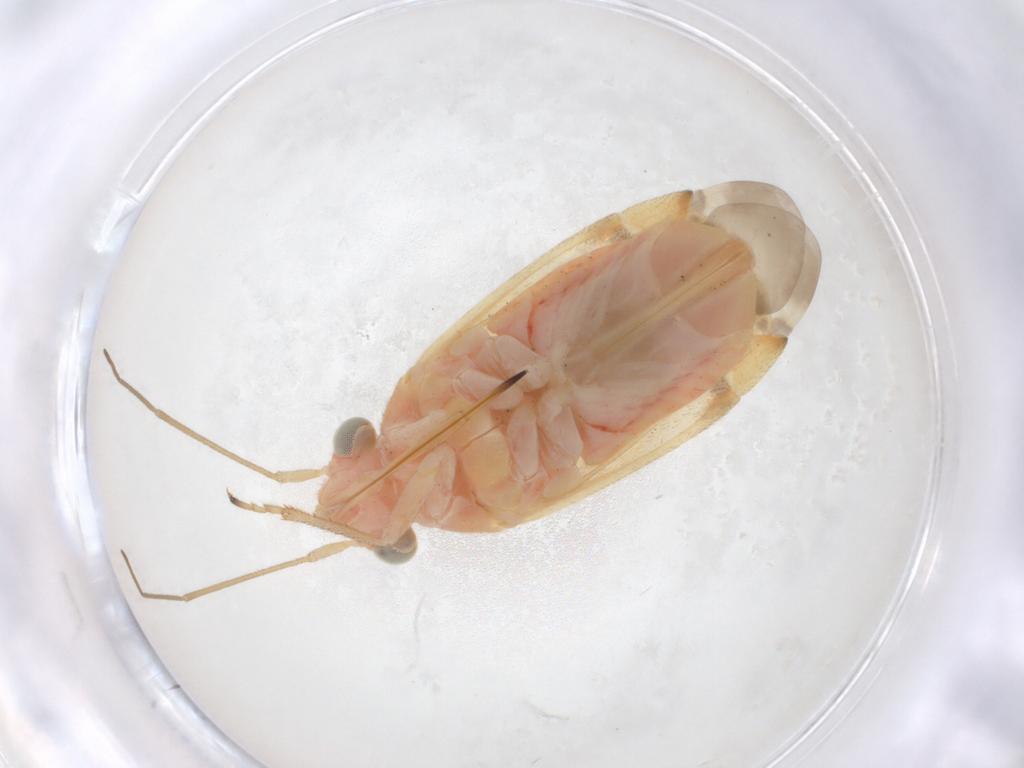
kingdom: Animalia
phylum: Arthropoda
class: Insecta
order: Hemiptera
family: Miridae
